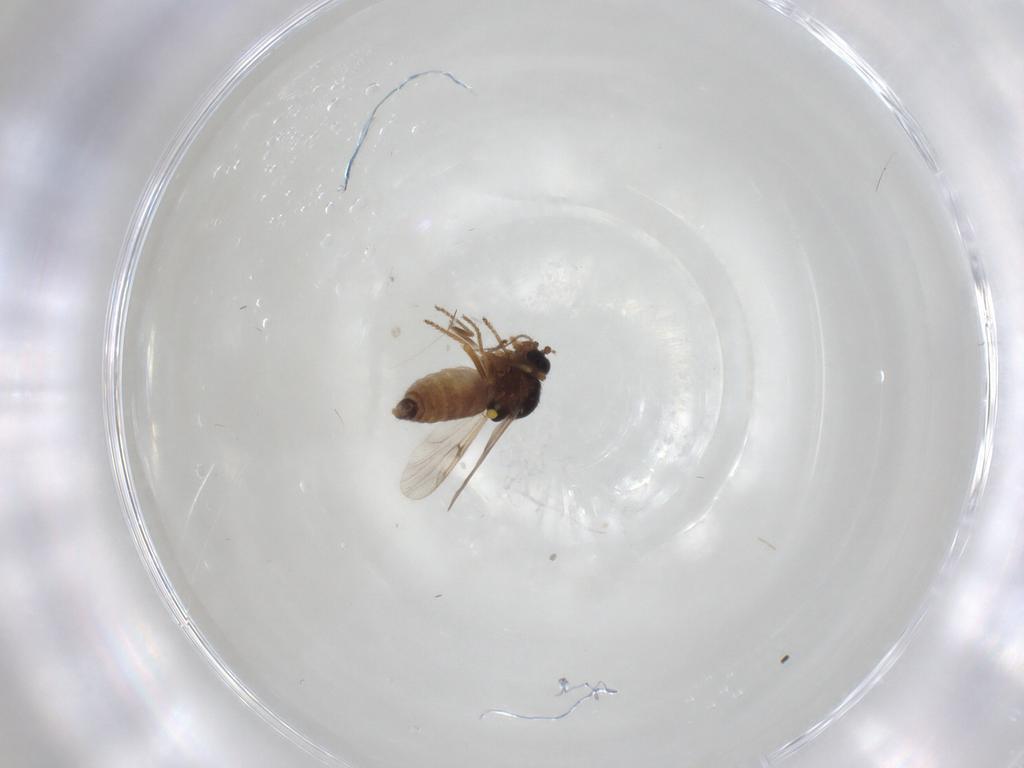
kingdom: Animalia
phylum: Arthropoda
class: Insecta
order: Diptera
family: Ceratopogonidae
